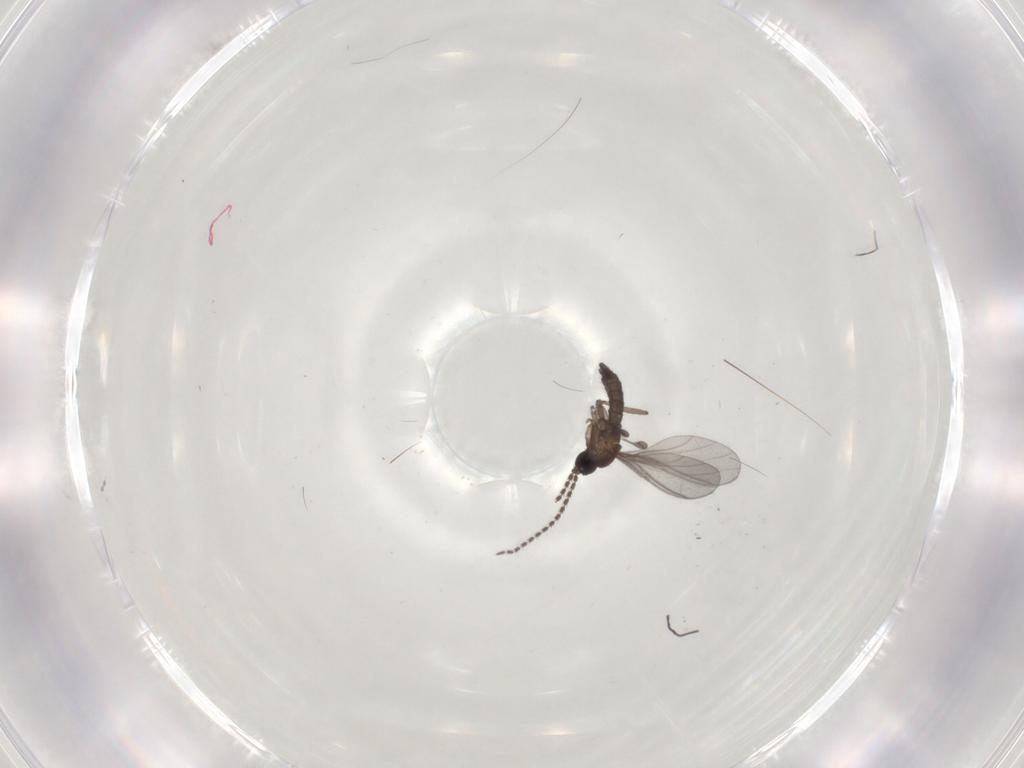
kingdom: Animalia
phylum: Arthropoda
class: Insecta
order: Diptera
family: Sciaridae
